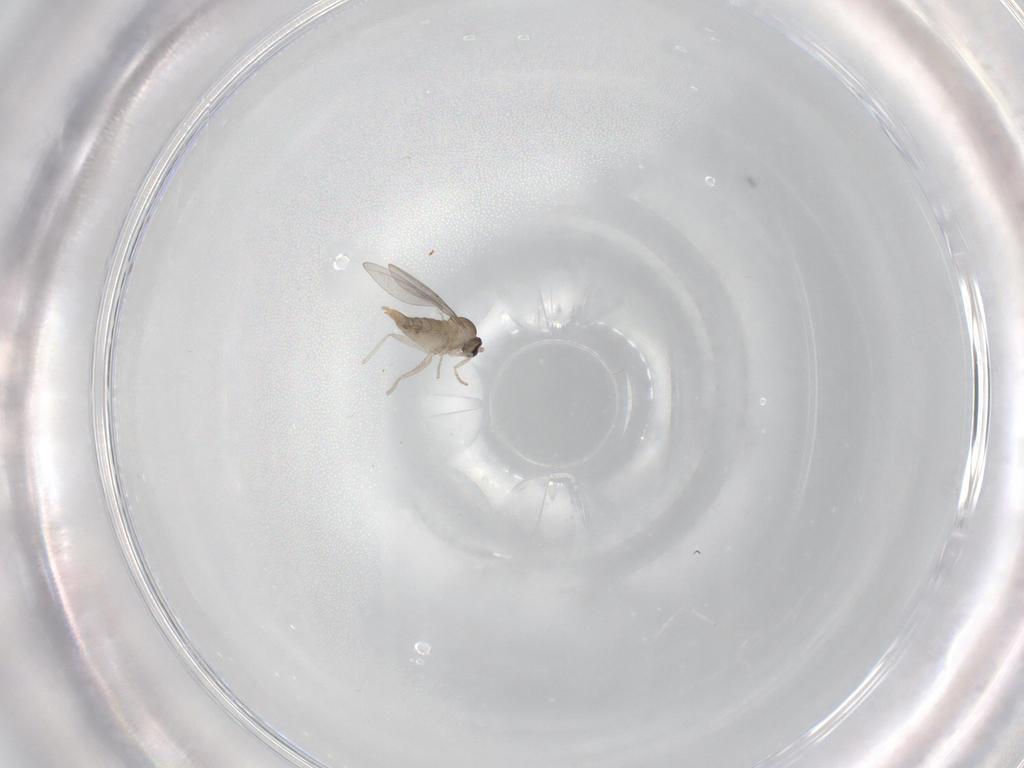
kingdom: Animalia
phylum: Arthropoda
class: Insecta
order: Diptera
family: Cecidomyiidae
